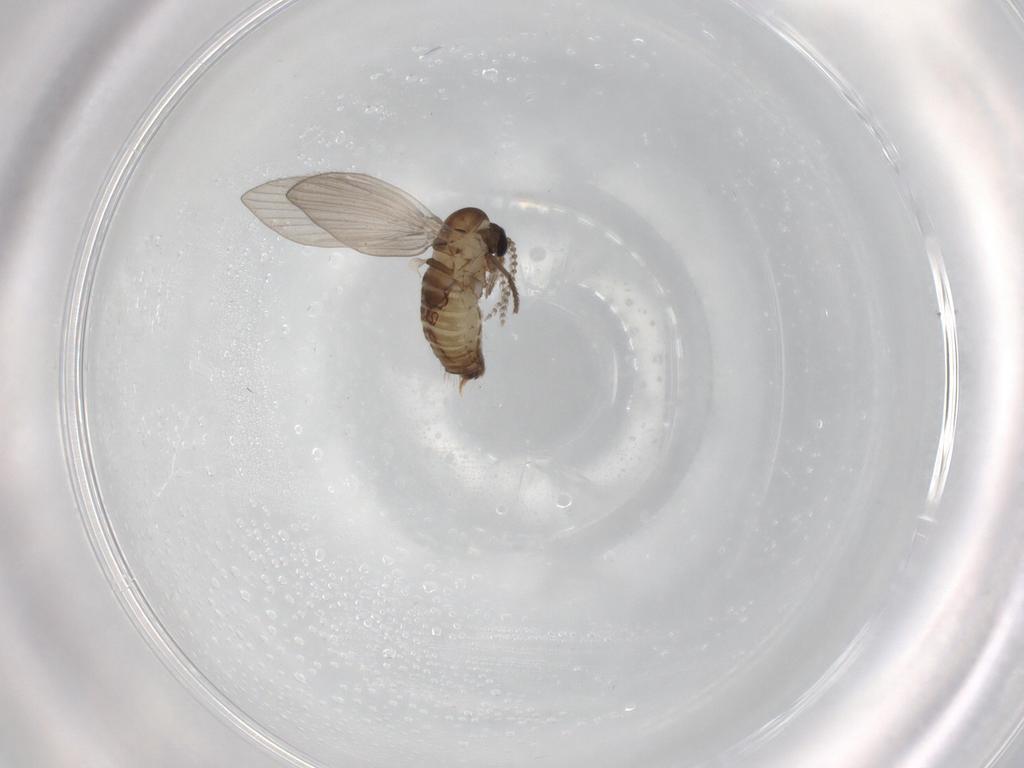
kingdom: Animalia
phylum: Arthropoda
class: Insecta
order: Diptera
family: Psychodidae
